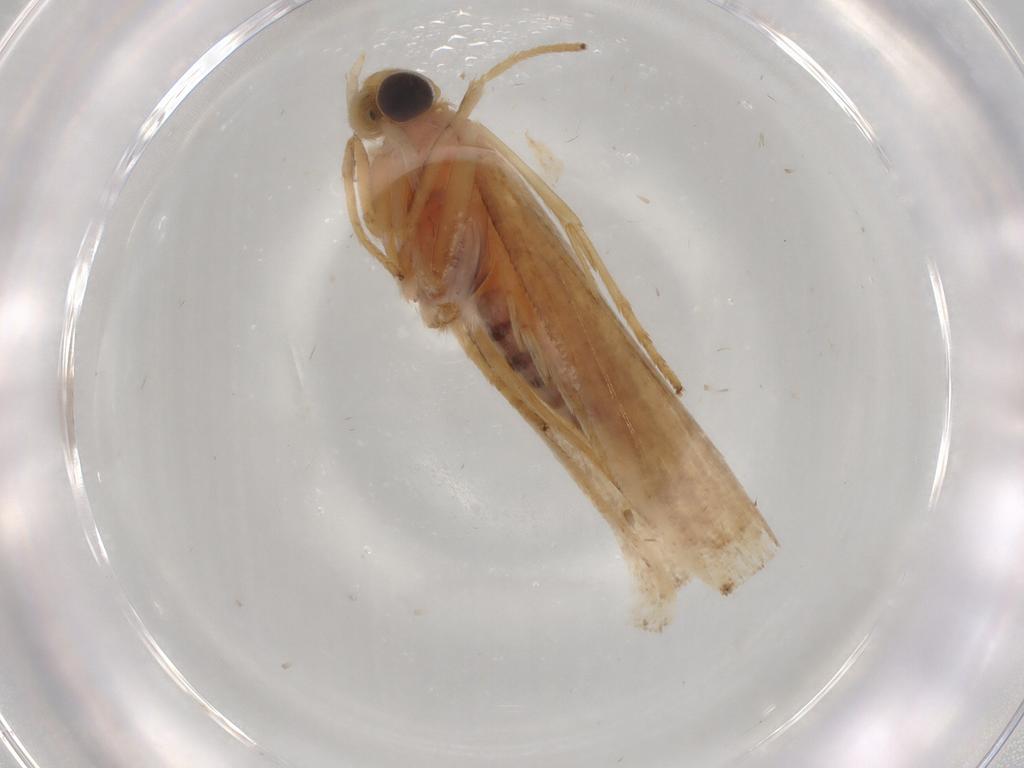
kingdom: Animalia
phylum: Arthropoda
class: Insecta
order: Lepidoptera
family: Pyralidae
